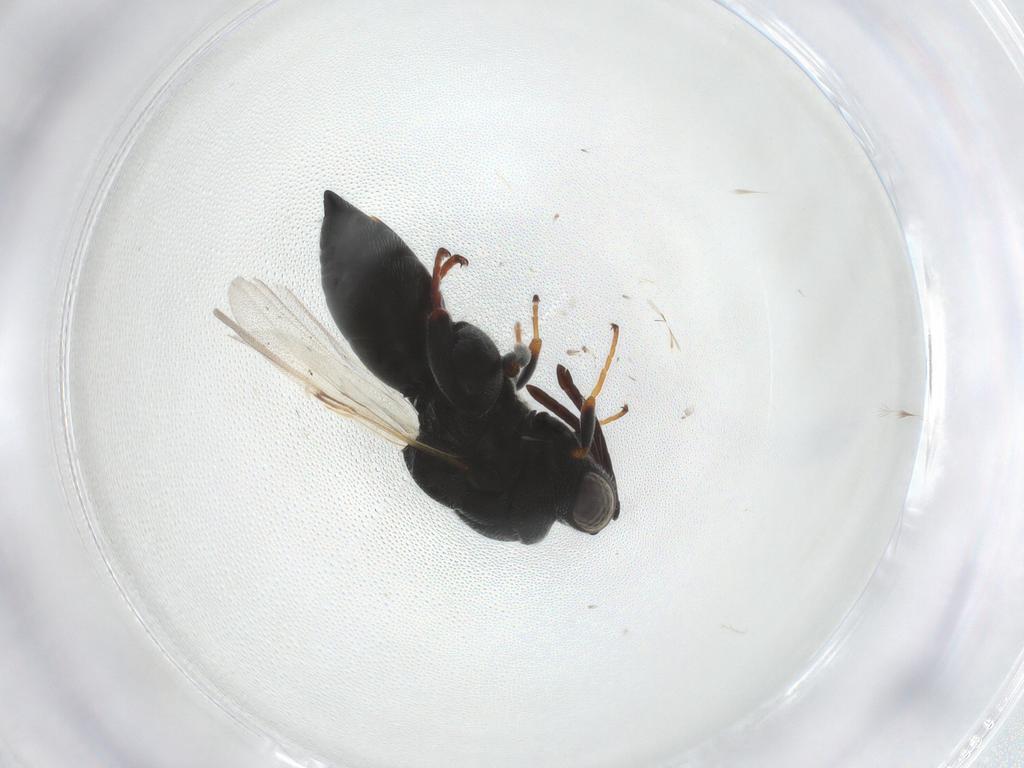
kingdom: Animalia
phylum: Arthropoda
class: Insecta
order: Hymenoptera
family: Chalcididae
